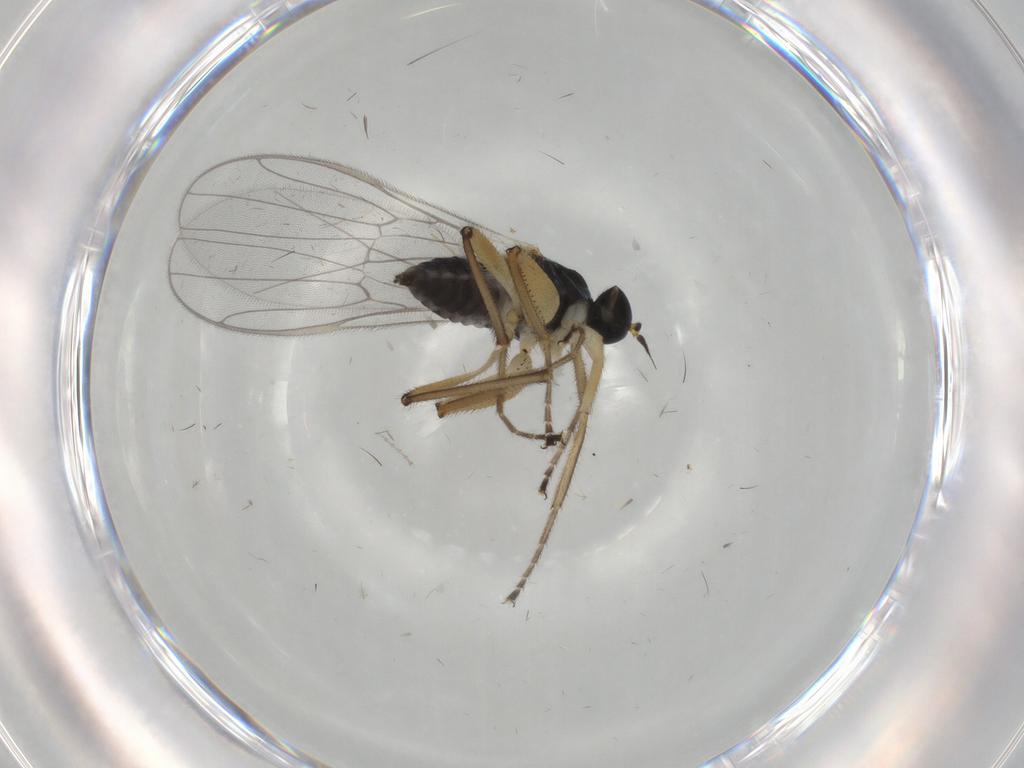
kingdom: Animalia
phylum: Arthropoda
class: Insecta
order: Diptera
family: Hybotidae
